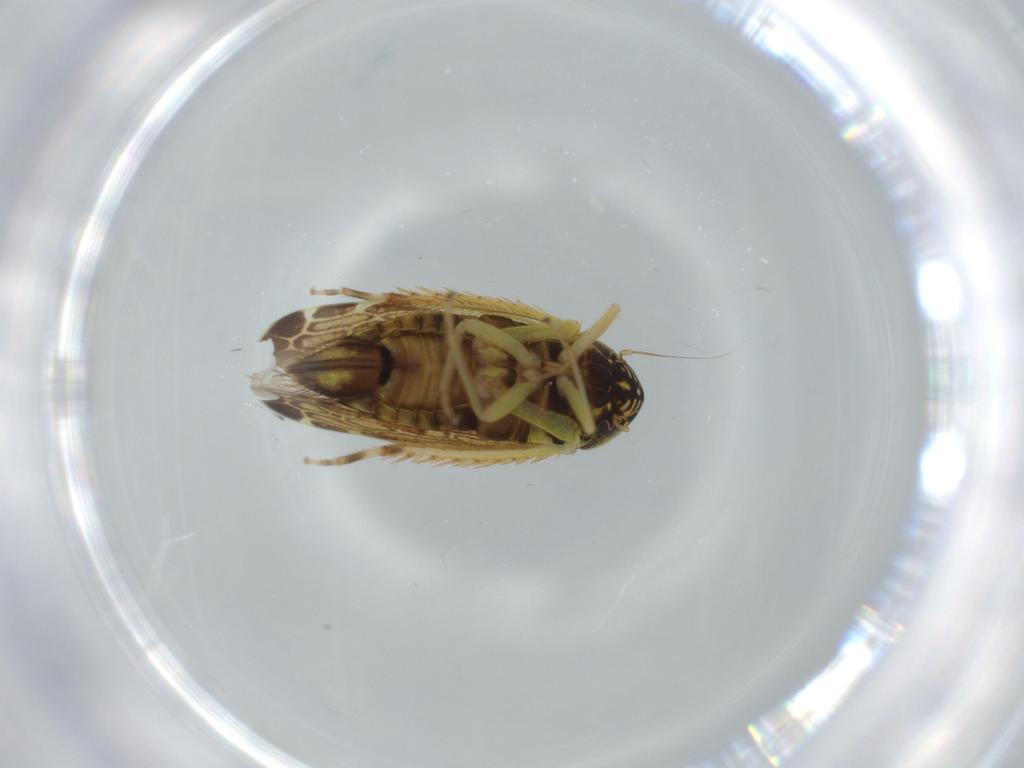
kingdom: Animalia
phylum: Arthropoda
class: Insecta
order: Hemiptera
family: Cicadellidae
